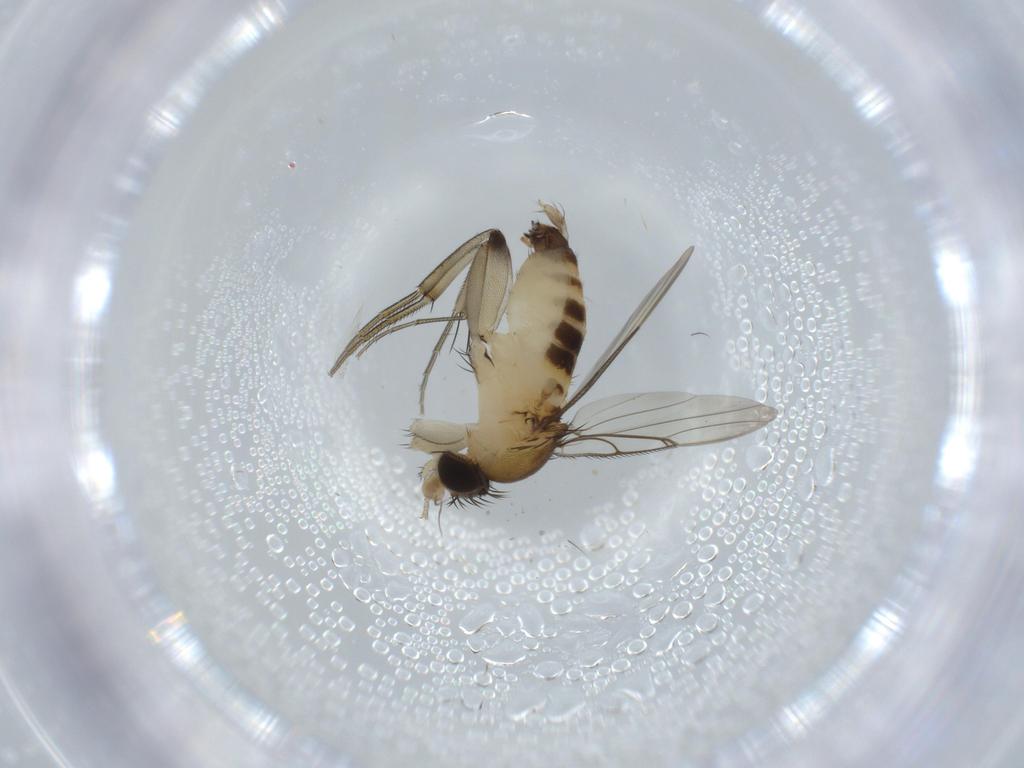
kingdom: Animalia
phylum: Arthropoda
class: Insecta
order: Diptera
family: Phoridae
